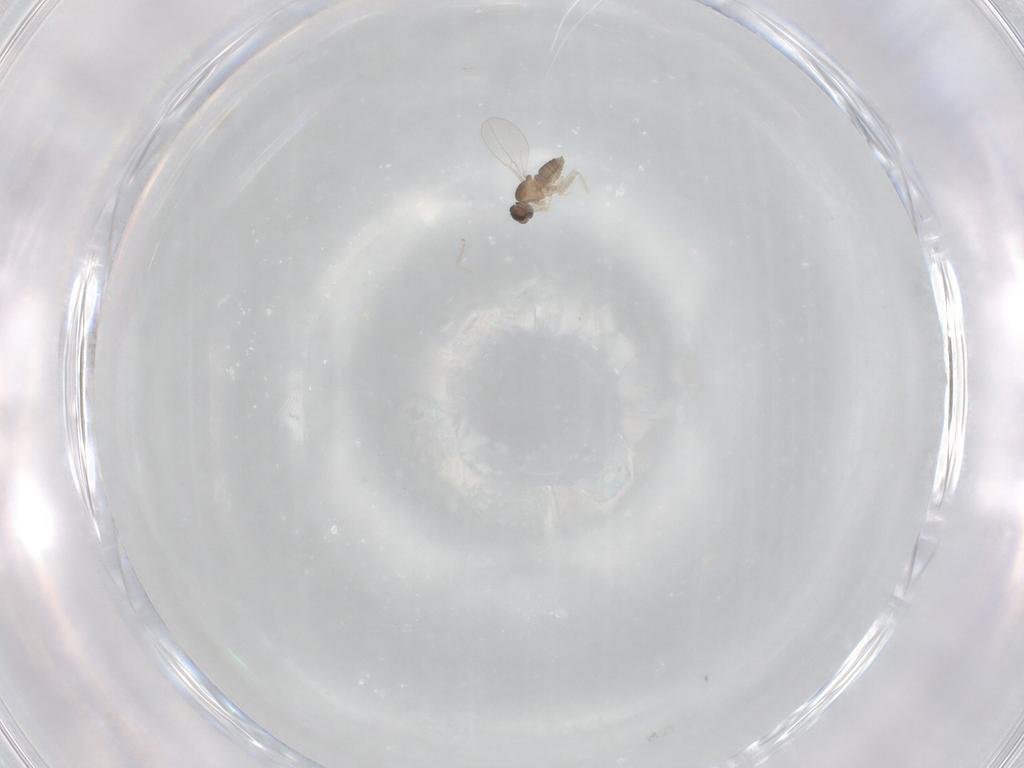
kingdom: Animalia
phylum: Arthropoda
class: Insecta
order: Diptera
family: Cecidomyiidae
